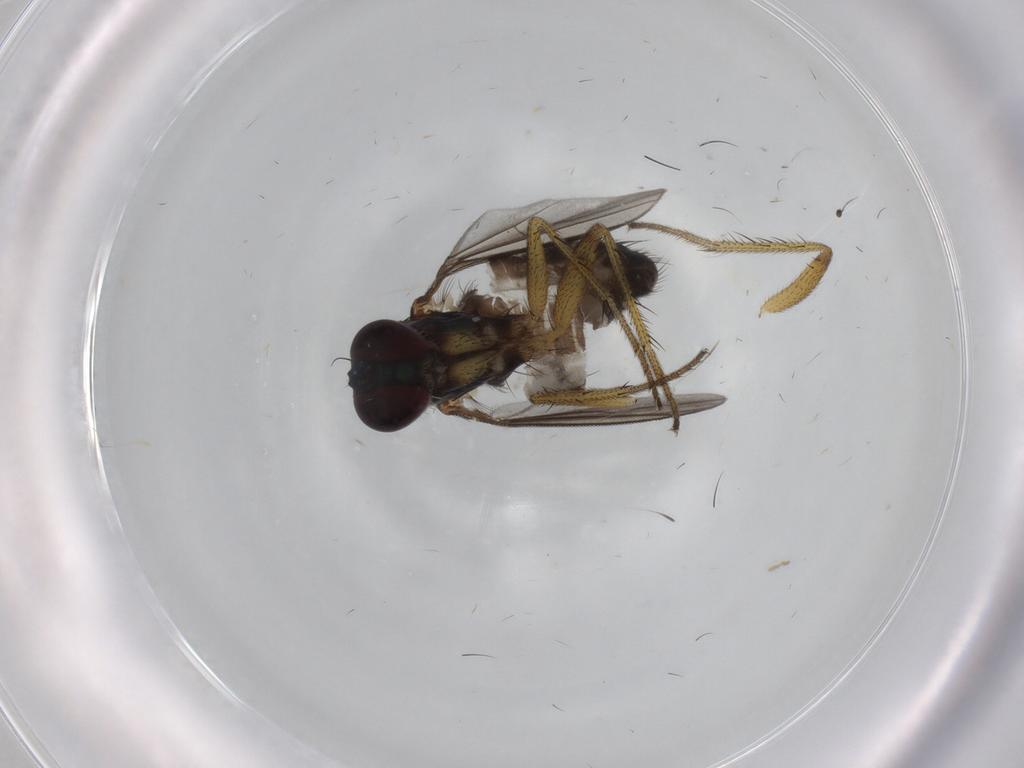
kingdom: Animalia
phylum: Arthropoda
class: Insecta
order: Diptera
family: Dolichopodidae
